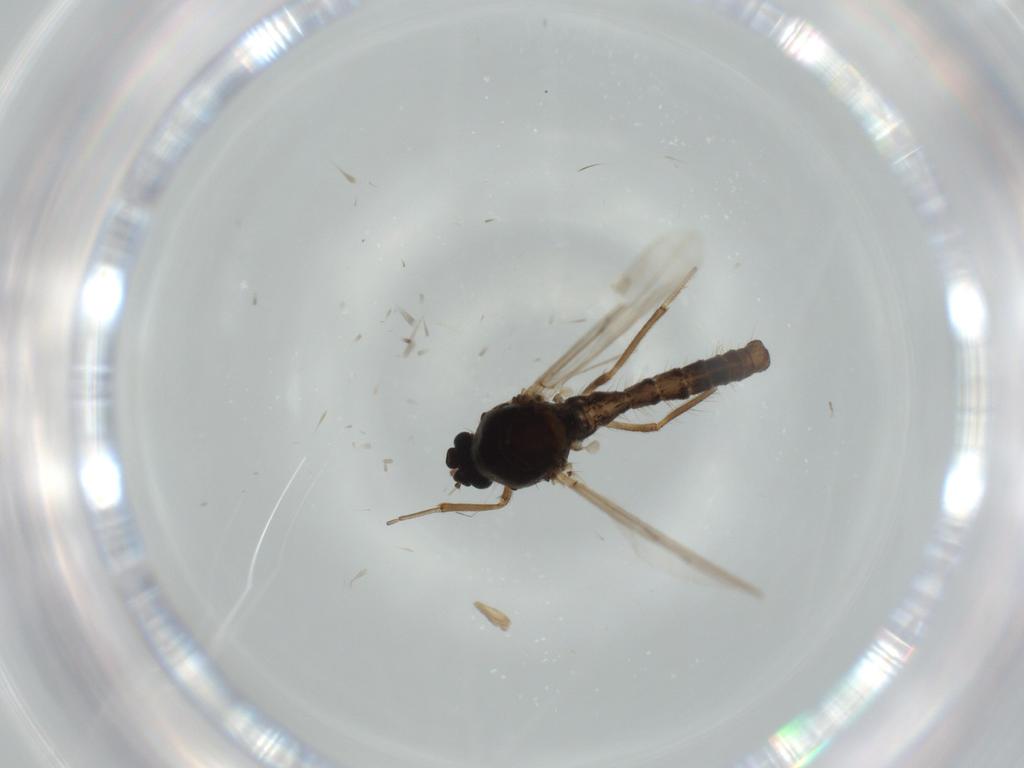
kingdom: Animalia
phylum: Arthropoda
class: Insecta
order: Diptera
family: Ceratopogonidae
